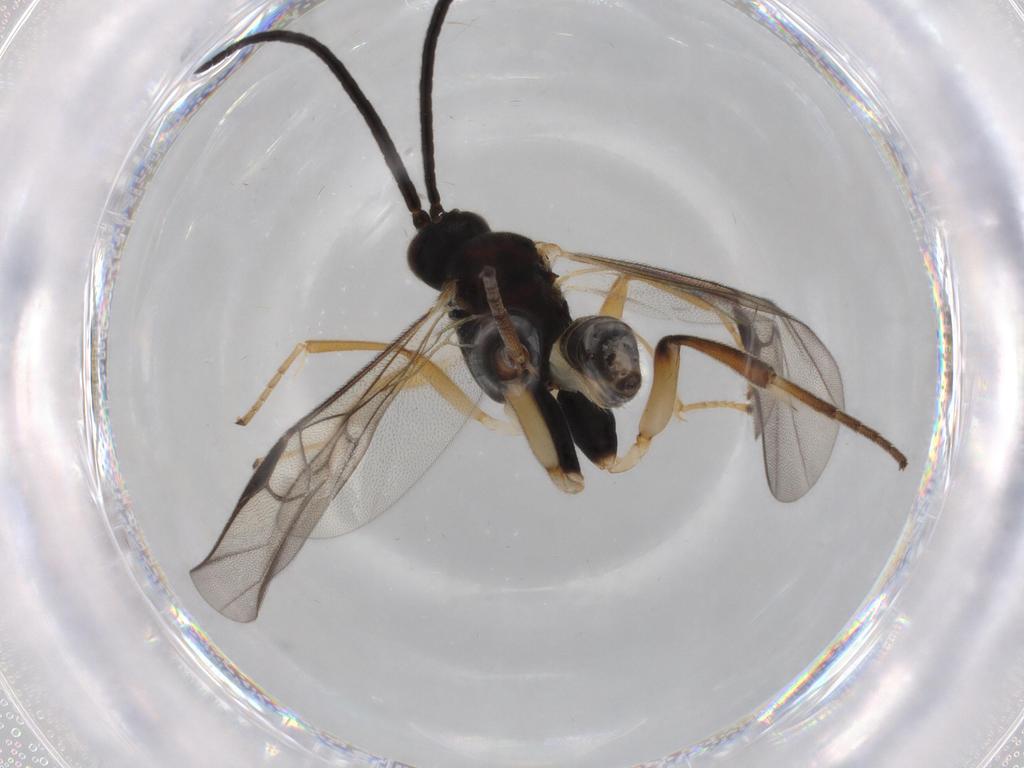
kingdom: Animalia
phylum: Arthropoda
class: Insecta
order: Hymenoptera
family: Braconidae
